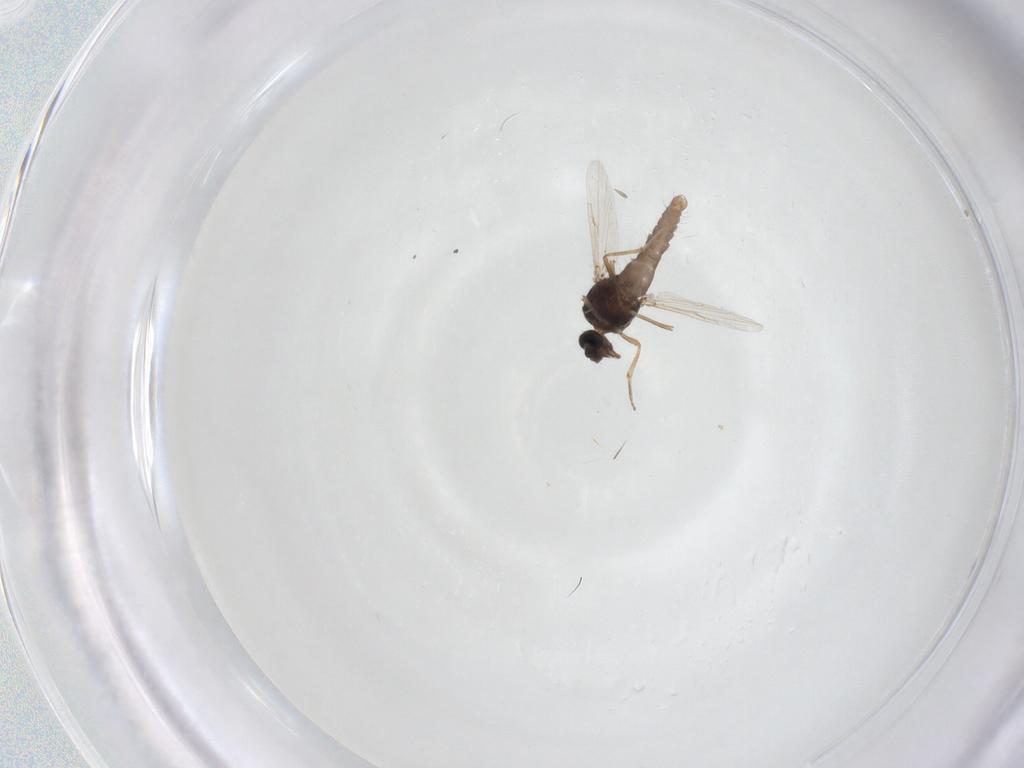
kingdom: Animalia
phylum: Arthropoda
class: Insecta
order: Diptera
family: Ceratopogonidae
